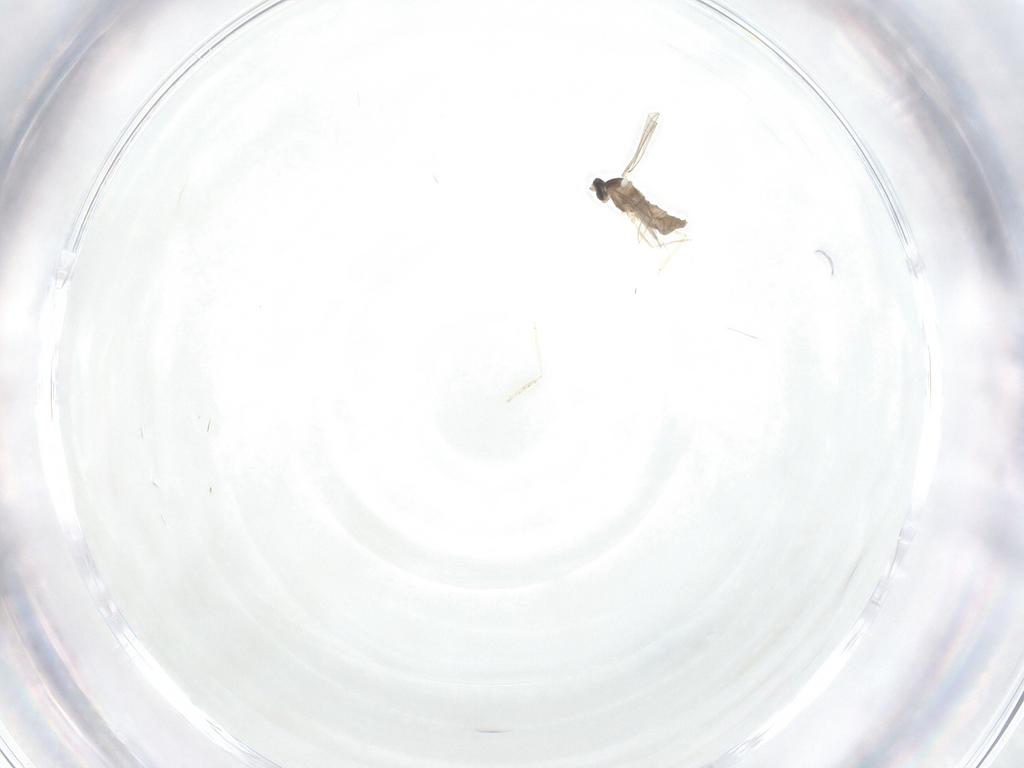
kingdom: Animalia
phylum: Arthropoda
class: Insecta
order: Diptera
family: Cecidomyiidae
